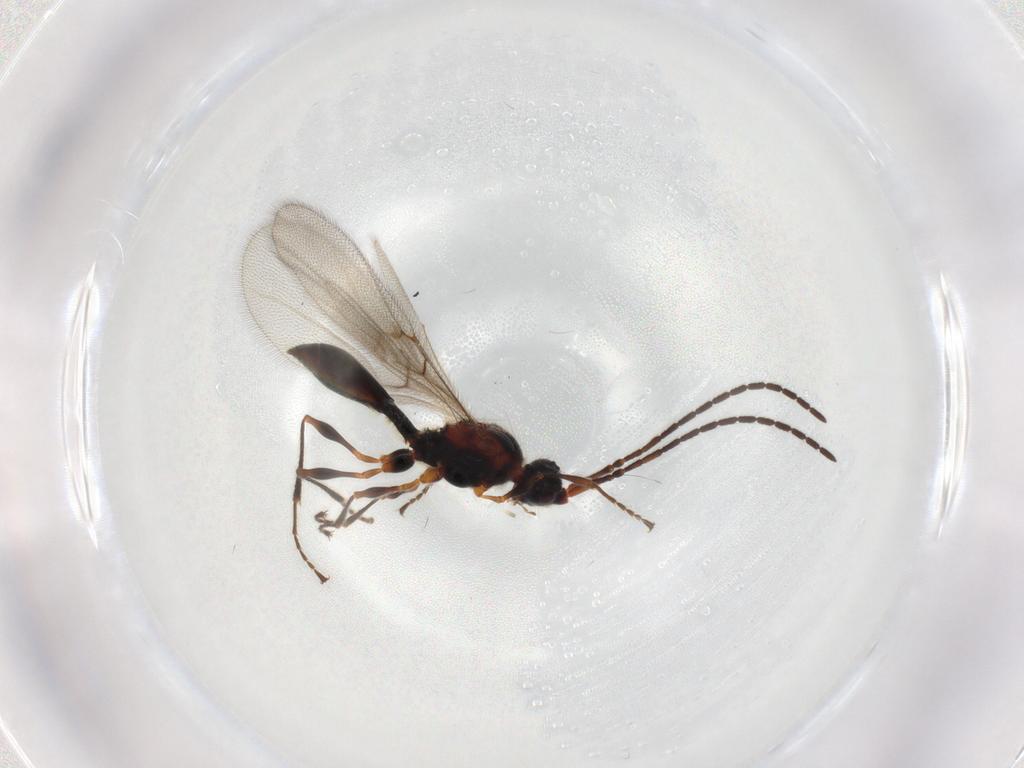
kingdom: Animalia
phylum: Arthropoda
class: Insecta
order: Hymenoptera
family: Diapriidae
